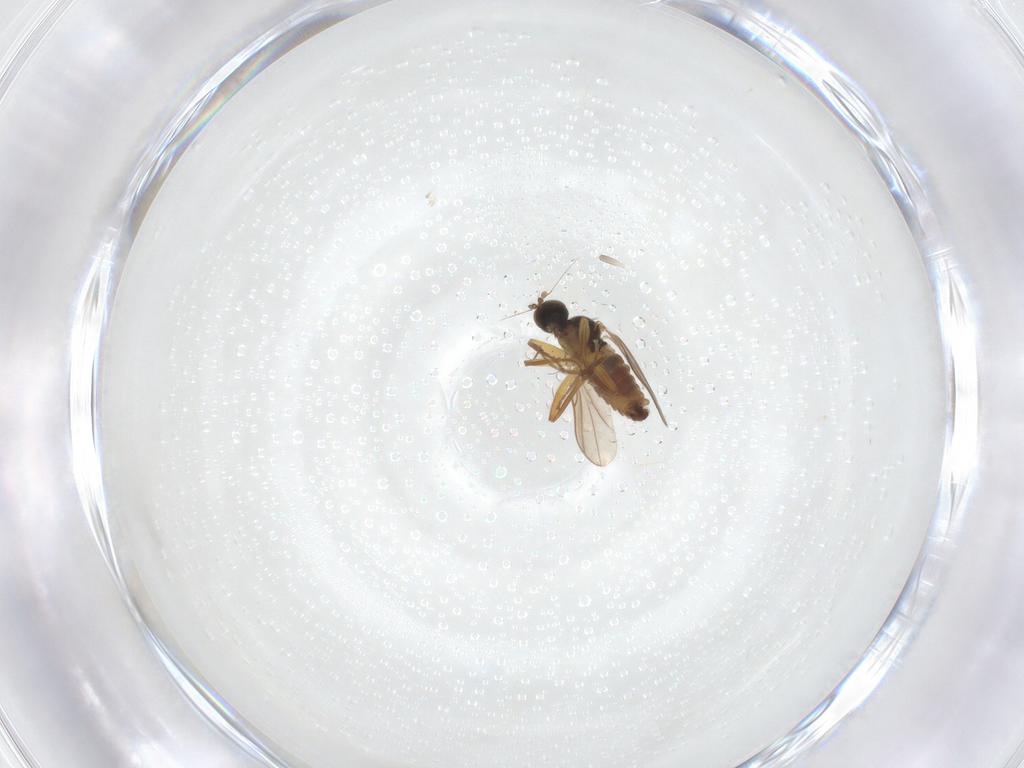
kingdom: Animalia
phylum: Arthropoda
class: Insecta
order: Diptera
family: Hybotidae
